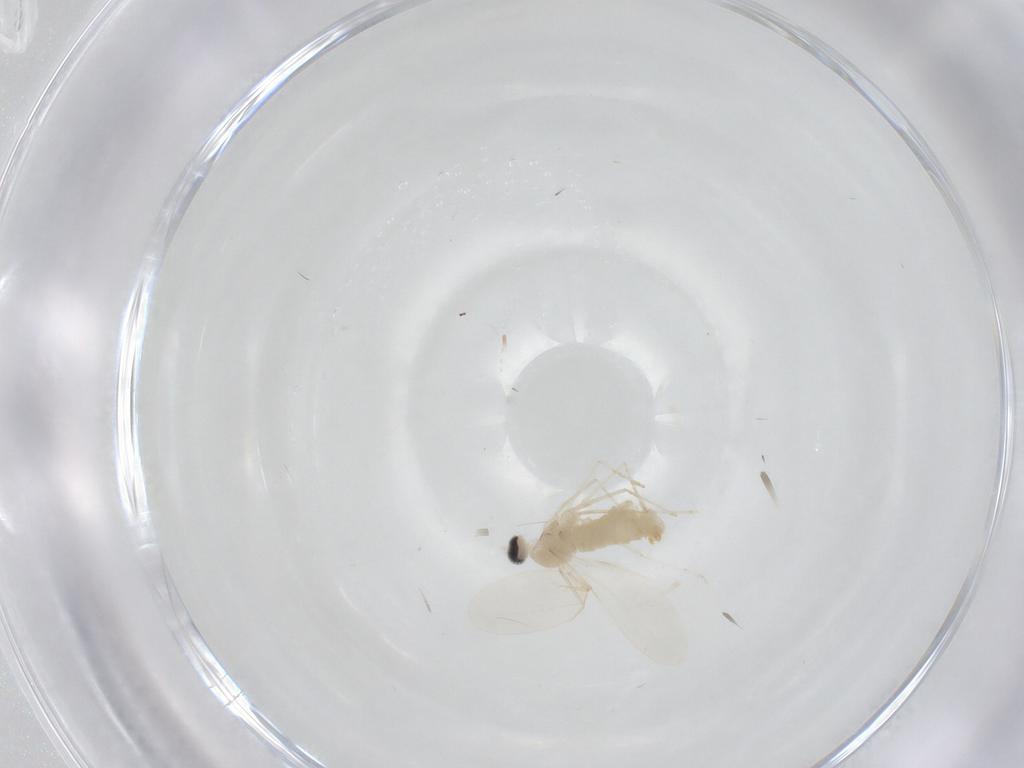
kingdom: Animalia
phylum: Arthropoda
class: Insecta
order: Diptera
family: Cecidomyiidae
